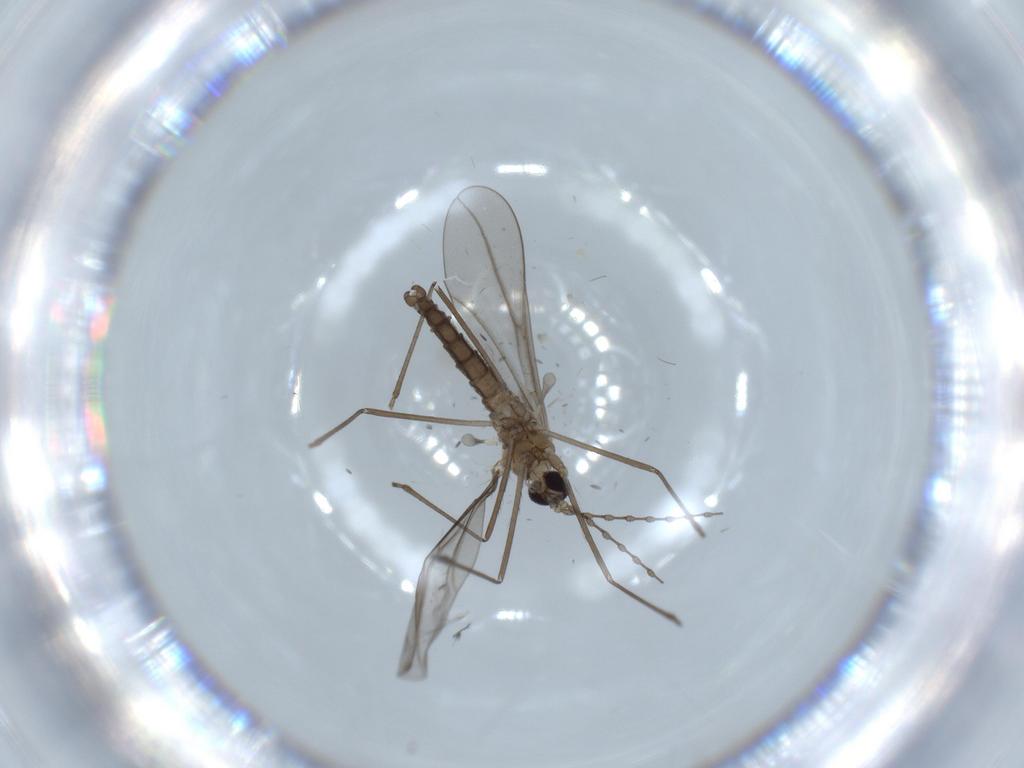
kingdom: Animalia
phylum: Arthropoda
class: Insecta
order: Diptera
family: Cecidomyiidae
